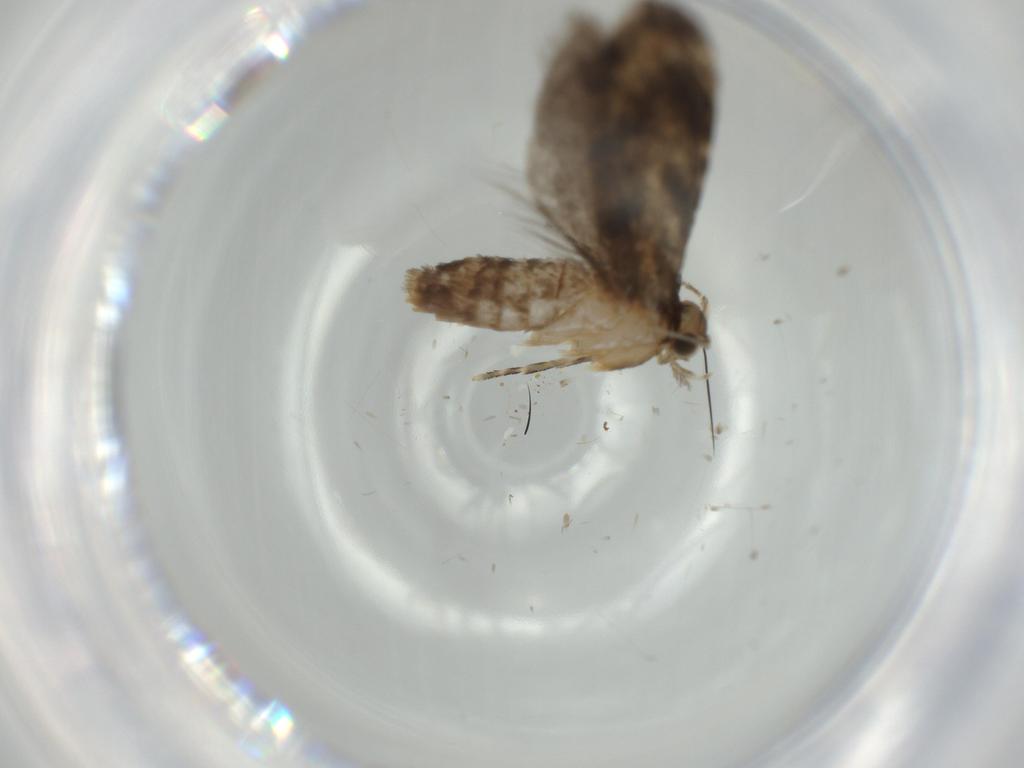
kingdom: Animalia
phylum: Arthropoda
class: Insecta
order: Lepidoptera
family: Tineidae
